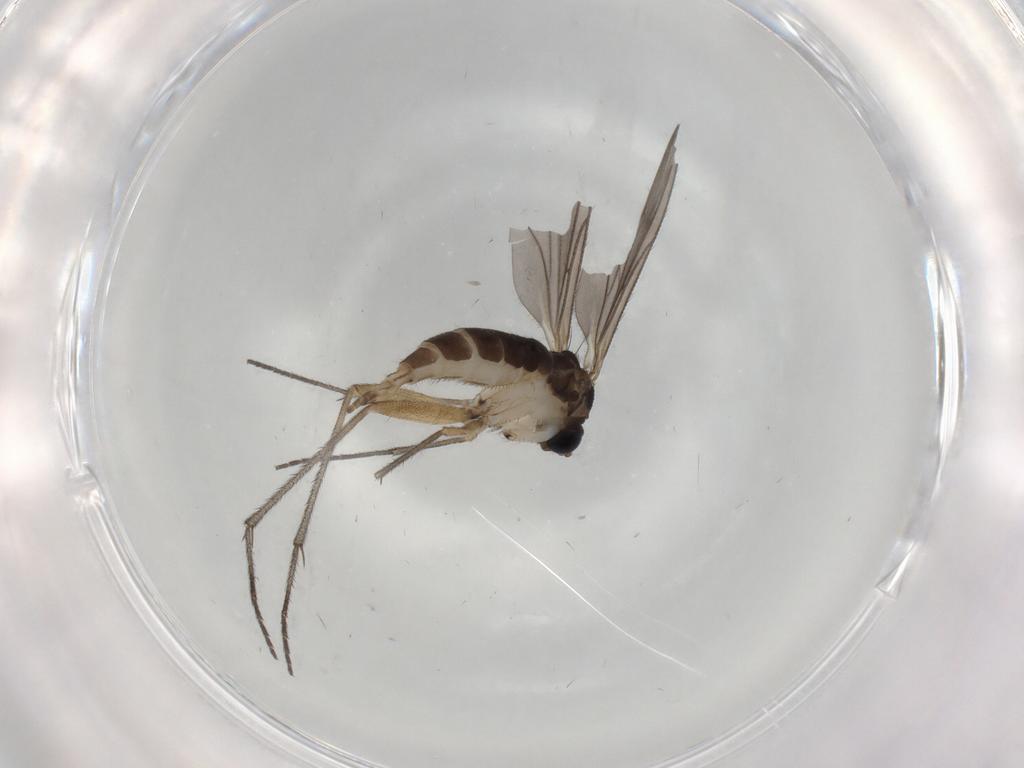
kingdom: Animalia
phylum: Arthropoda
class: Insecta
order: Diptera
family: Sciaridae
